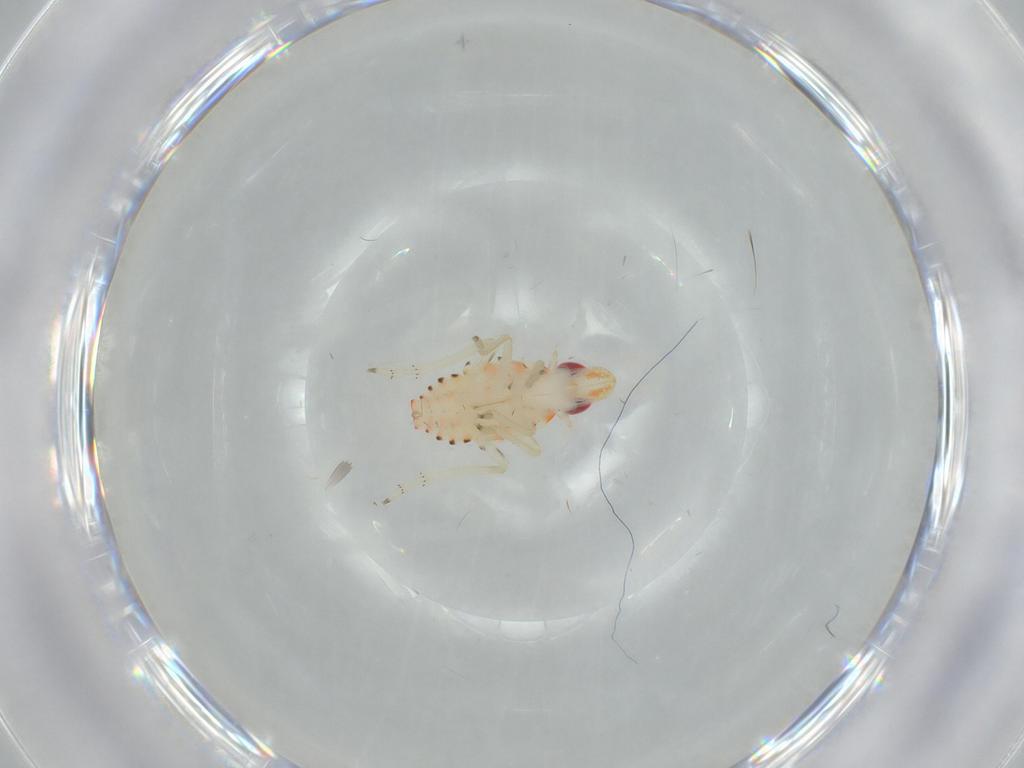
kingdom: Animalia
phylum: Arthropoda
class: Insecta
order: Hemiptera
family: Tropiduchidae
